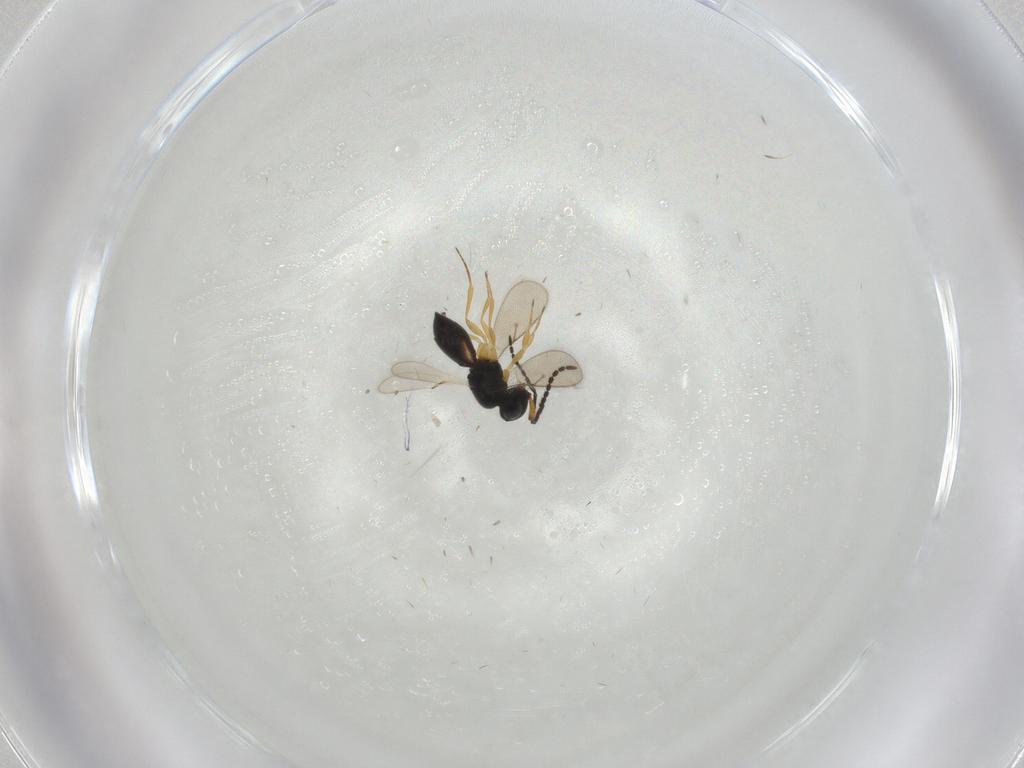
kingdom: Animalia
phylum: Arthropoda
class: Insecta
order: Hymenoptera
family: Scelionidae
